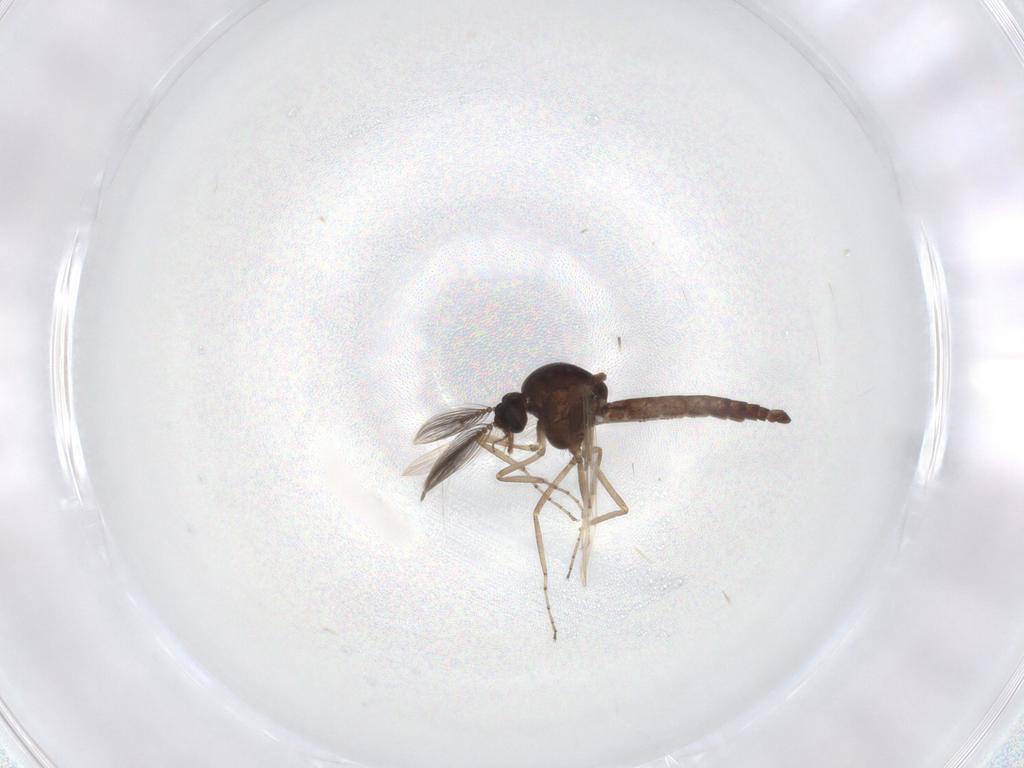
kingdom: Animalia
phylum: Arthropoda
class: Insecta
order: Diptera
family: Ceratopogonidae
